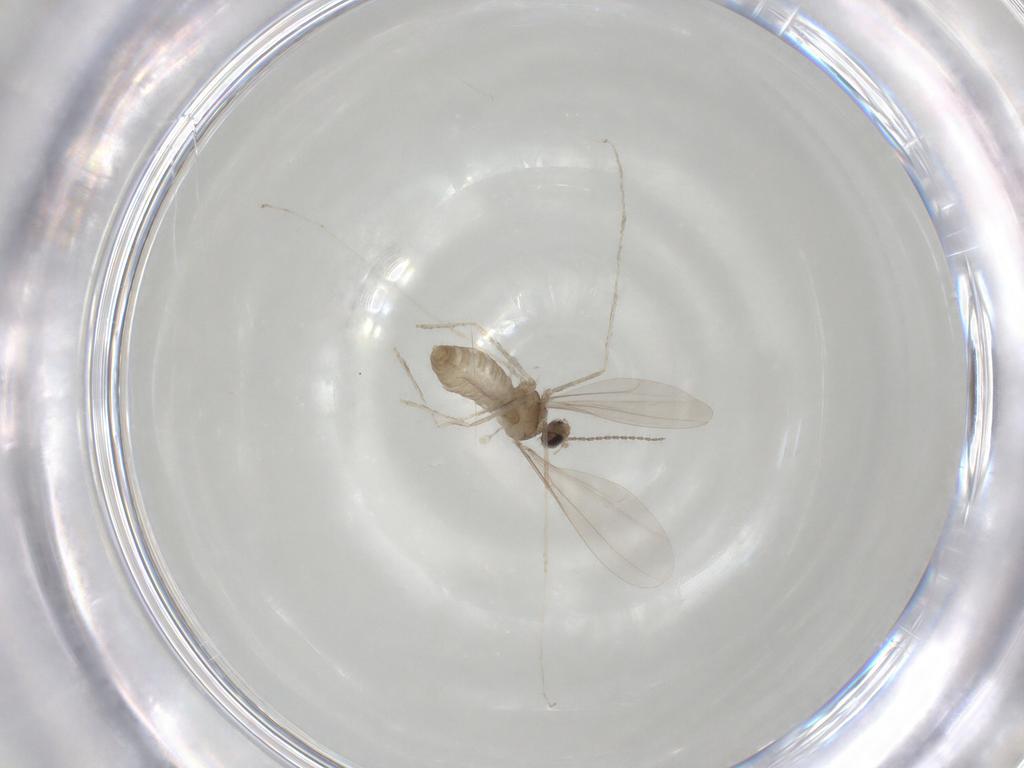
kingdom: Animalia
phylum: Arthropoda
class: Insecta
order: Diptera
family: Cecidomyiidae
